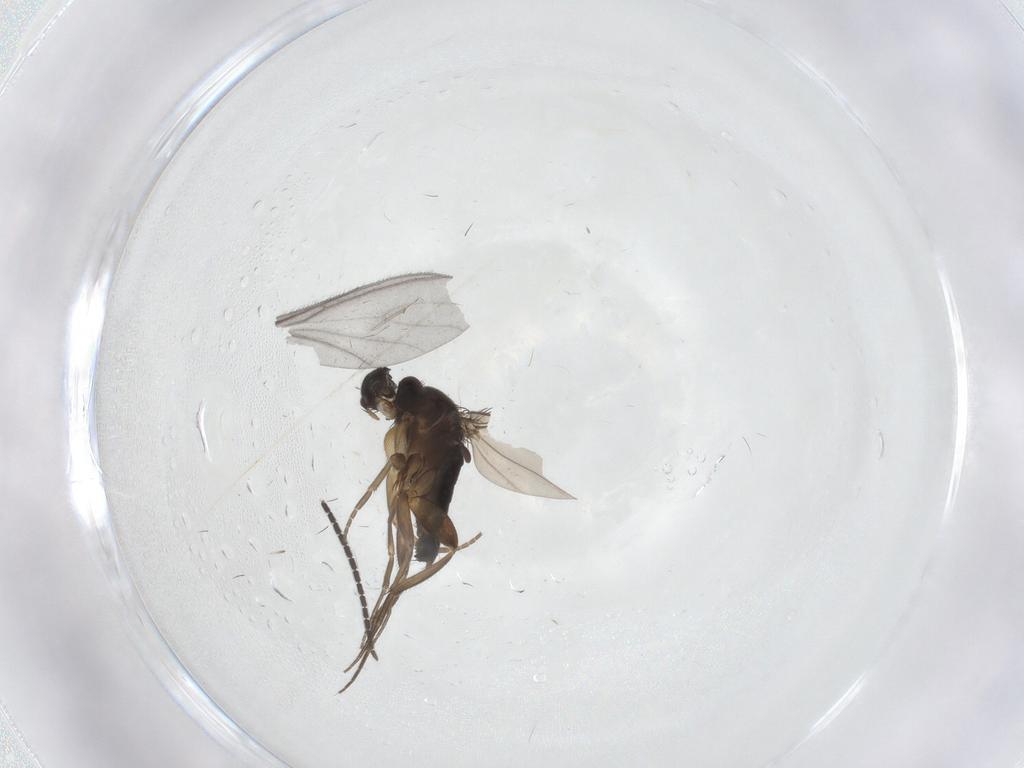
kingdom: Animalia
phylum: Arthropoda
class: Insecta
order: Diptera
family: Phoridae
